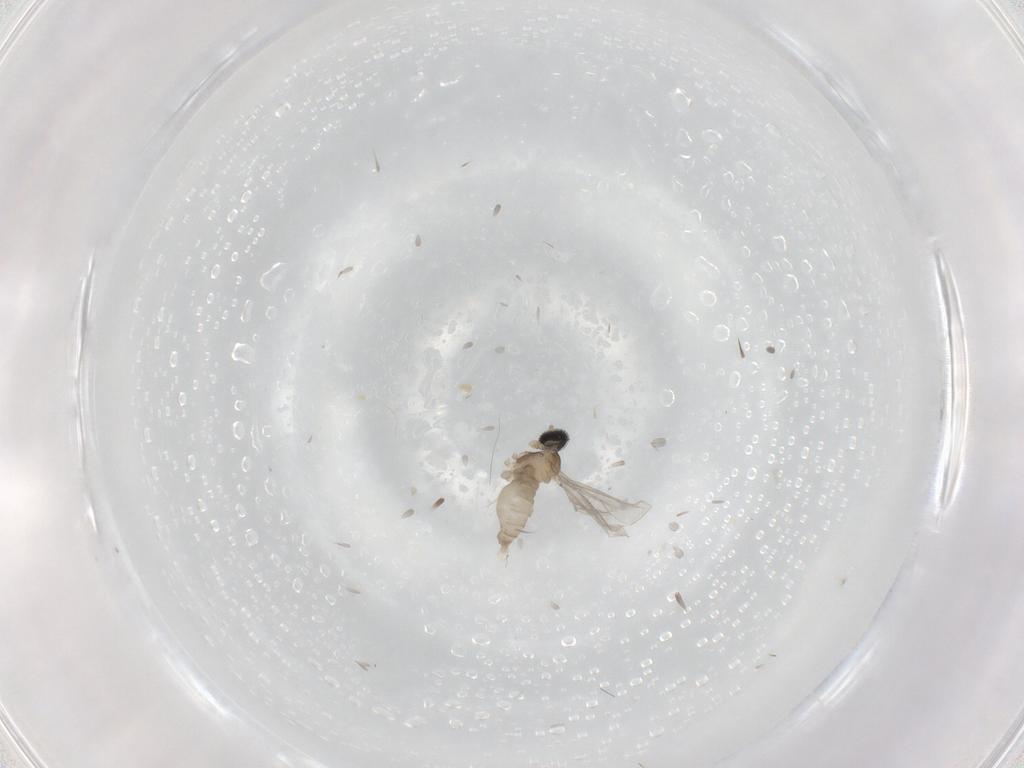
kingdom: Animalia
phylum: Arthropoda
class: Insecta
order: Diptera
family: Cecidomyiidae
